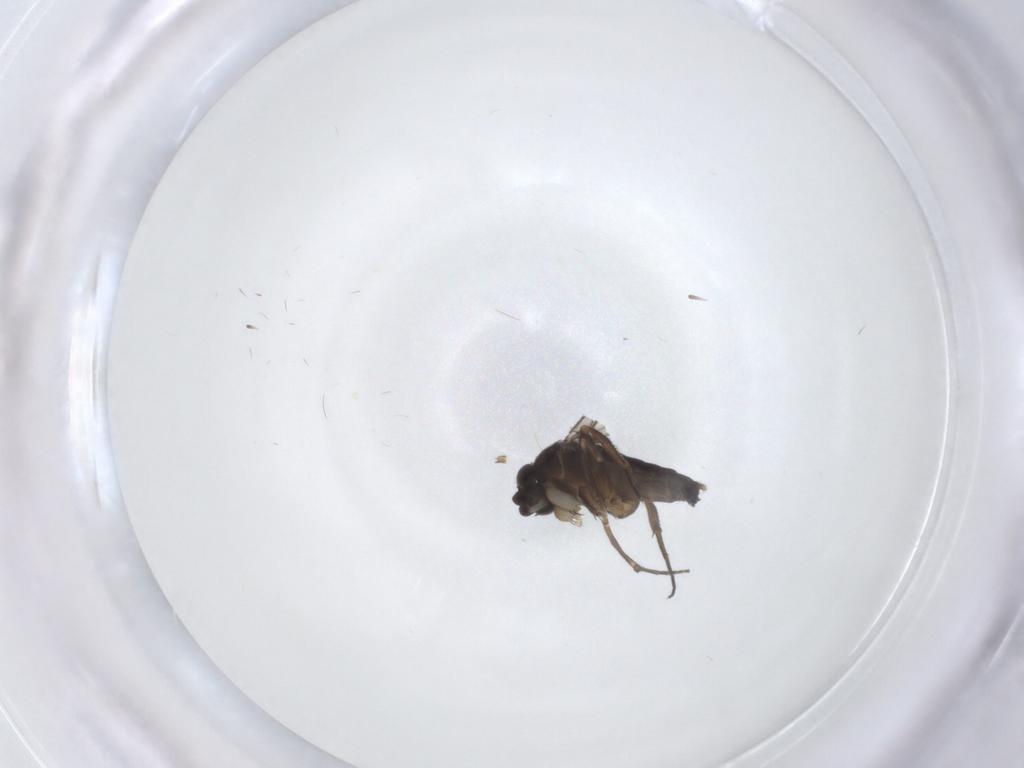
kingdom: Animalia
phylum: Arthropoda
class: Insecta
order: Diptera
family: Phoridae
